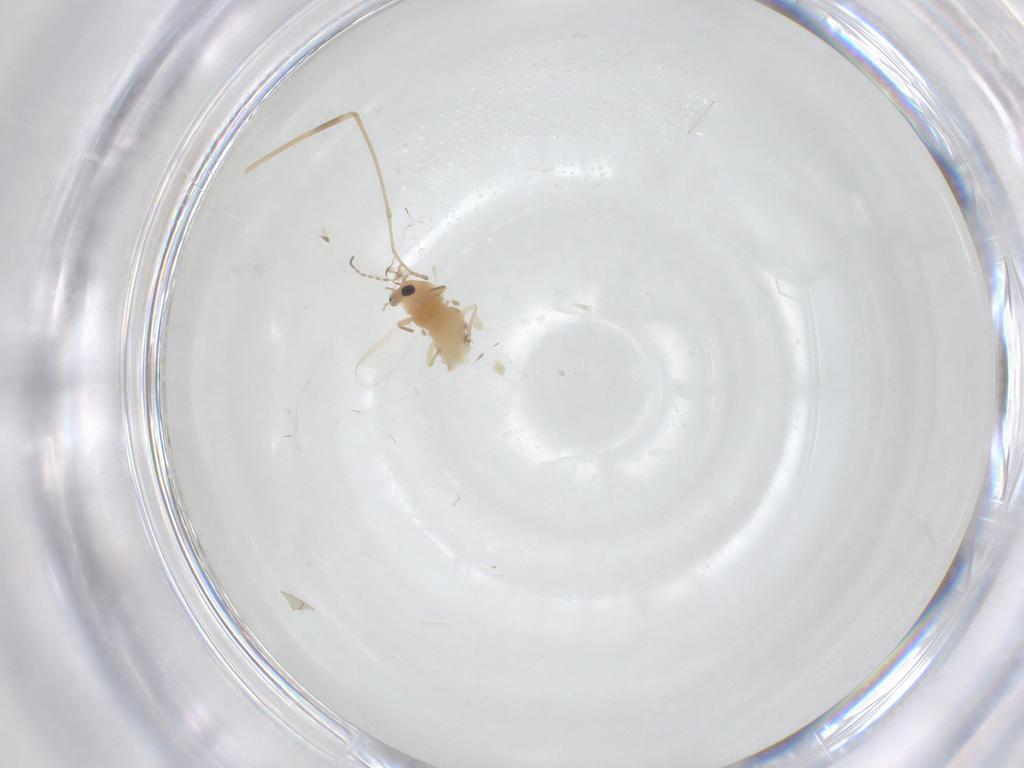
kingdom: Animalia
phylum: Arthropoda
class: Insecta
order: Diptera
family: Chironomidae
